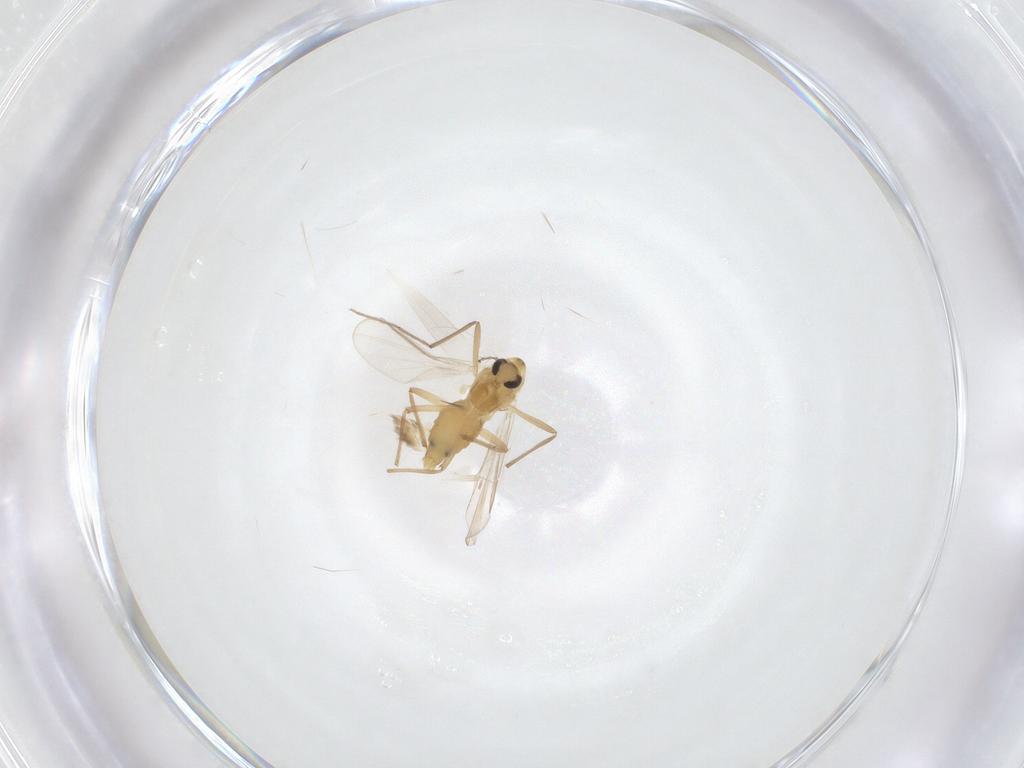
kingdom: Animalia
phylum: Arthropoda
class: Insecta
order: Diptera
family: Chironomidae
